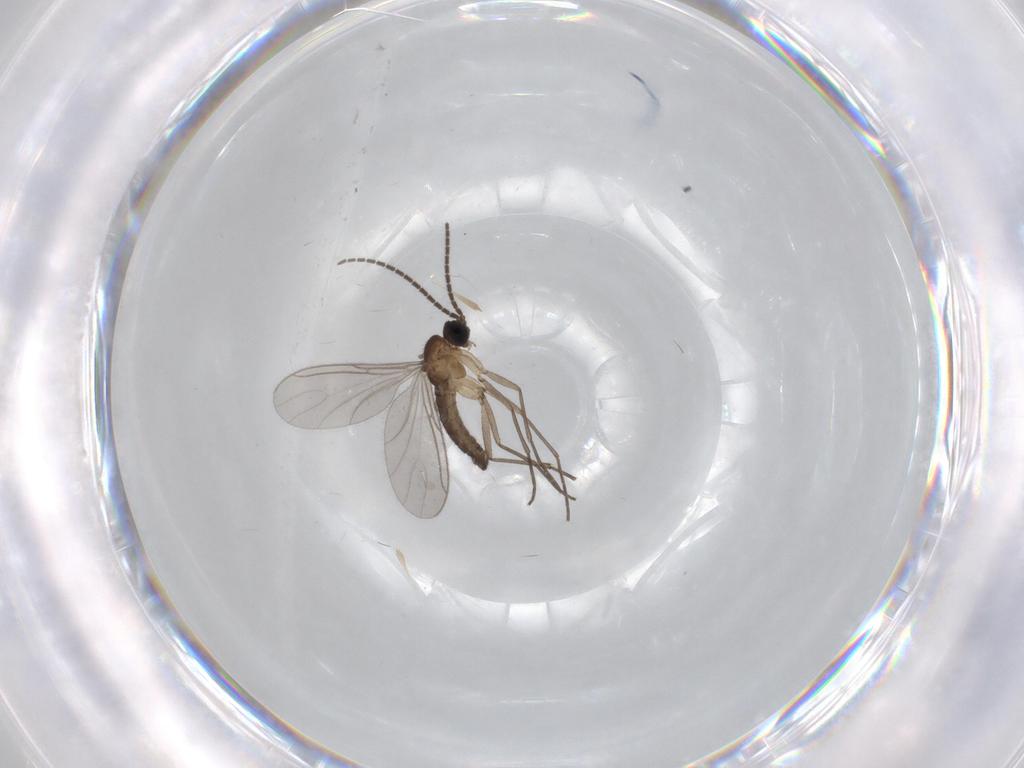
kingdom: Animalia
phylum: Arthropoda
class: Insecta
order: Diptera
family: Sciaridae
